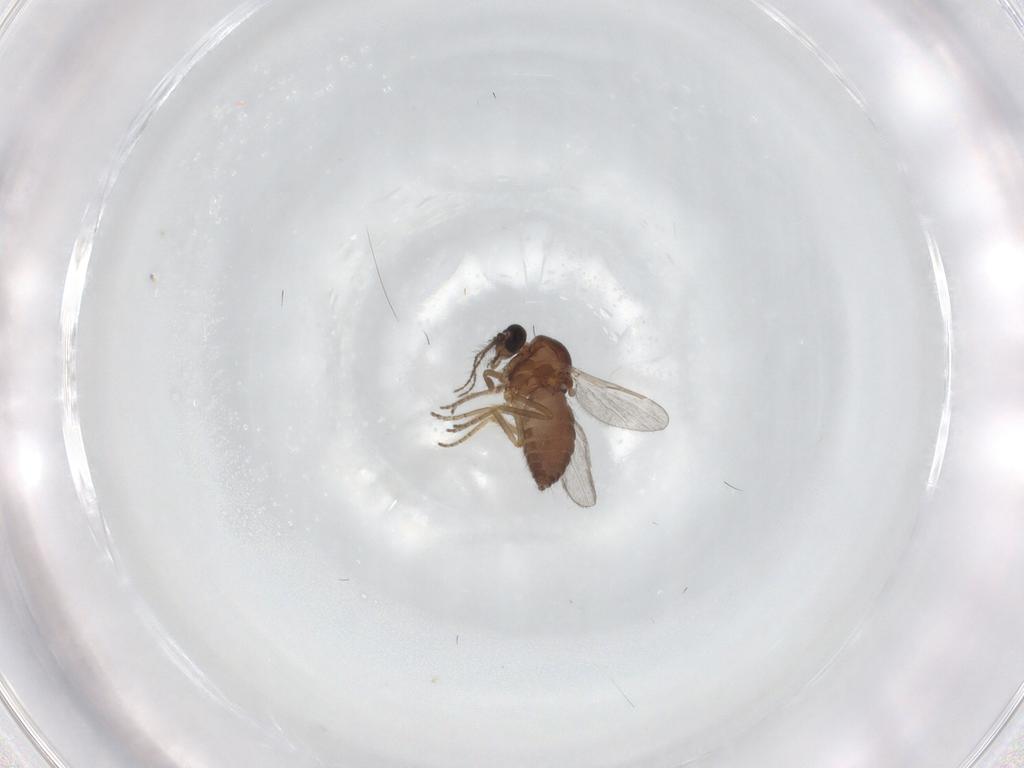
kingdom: Animalia
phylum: Arthropoda
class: Insecta
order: Diptera
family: Ceratopogonidae
